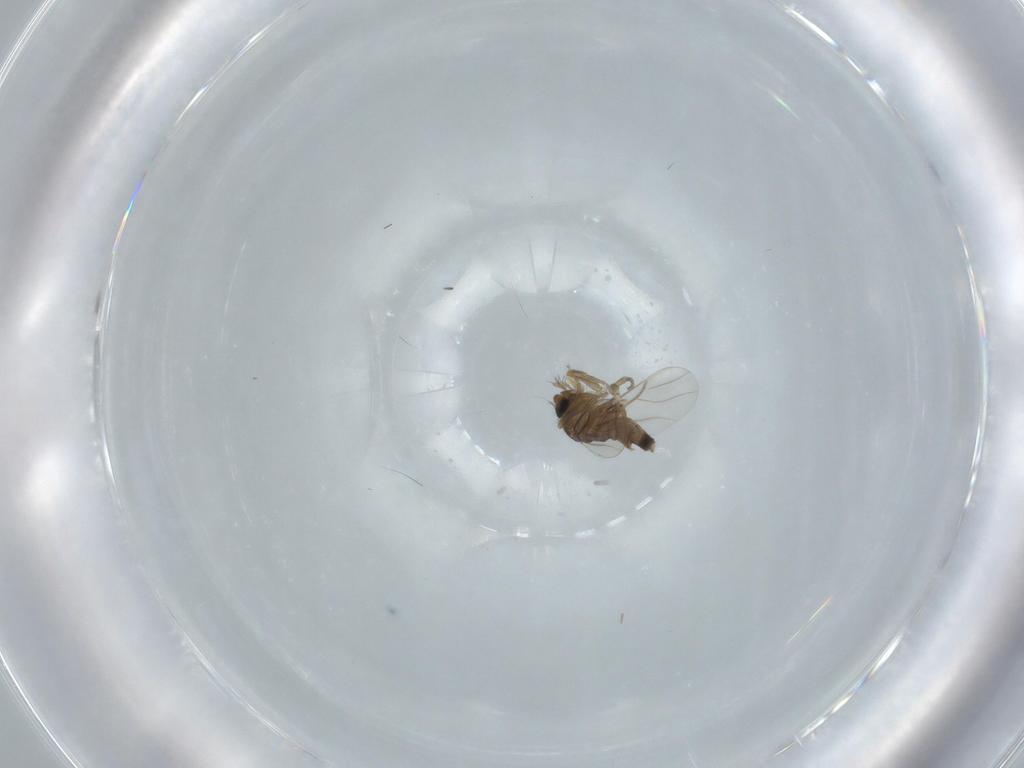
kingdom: Animalia
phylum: Arthropoda
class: Insecta
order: Diptera
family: Phoridae
